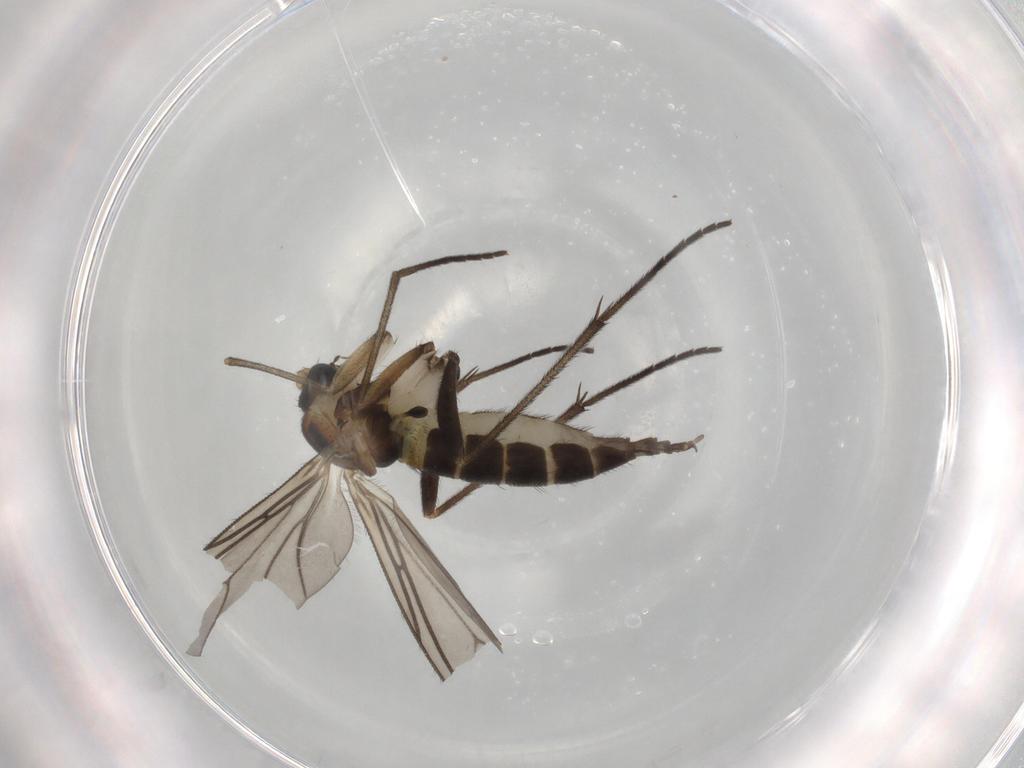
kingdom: Animalia
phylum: Arthropoda
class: Insecta
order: Diptera
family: Sciaridae
